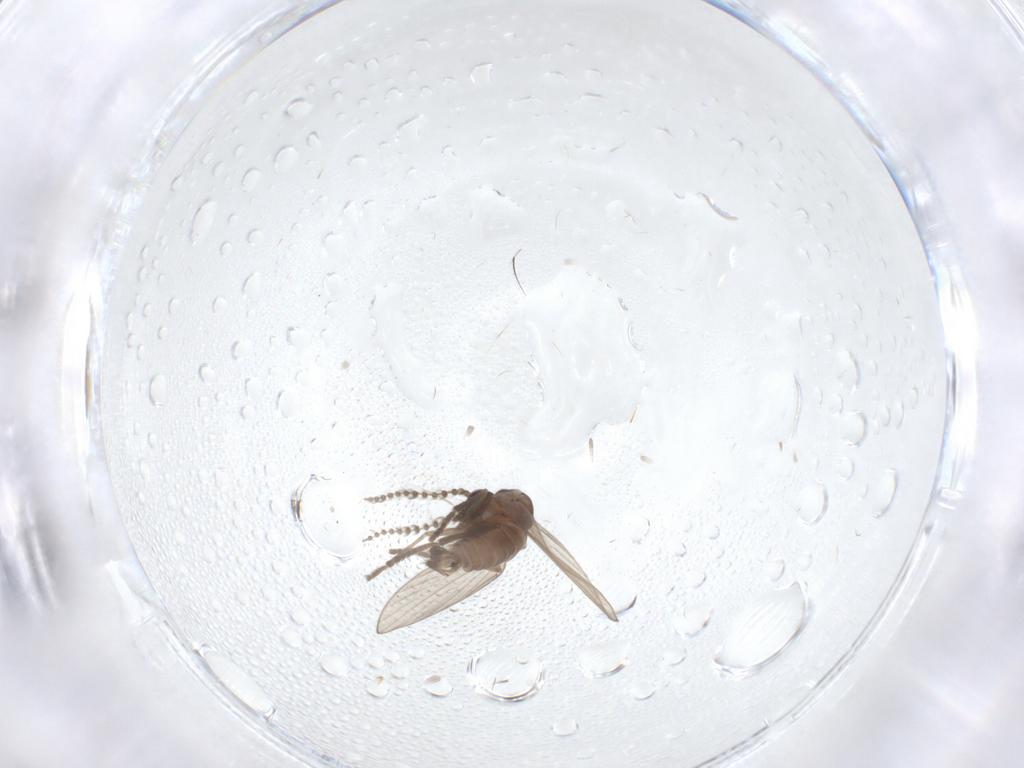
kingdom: Animalia
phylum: Arthropoda
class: Insecta
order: Diptera
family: Psychodidae
